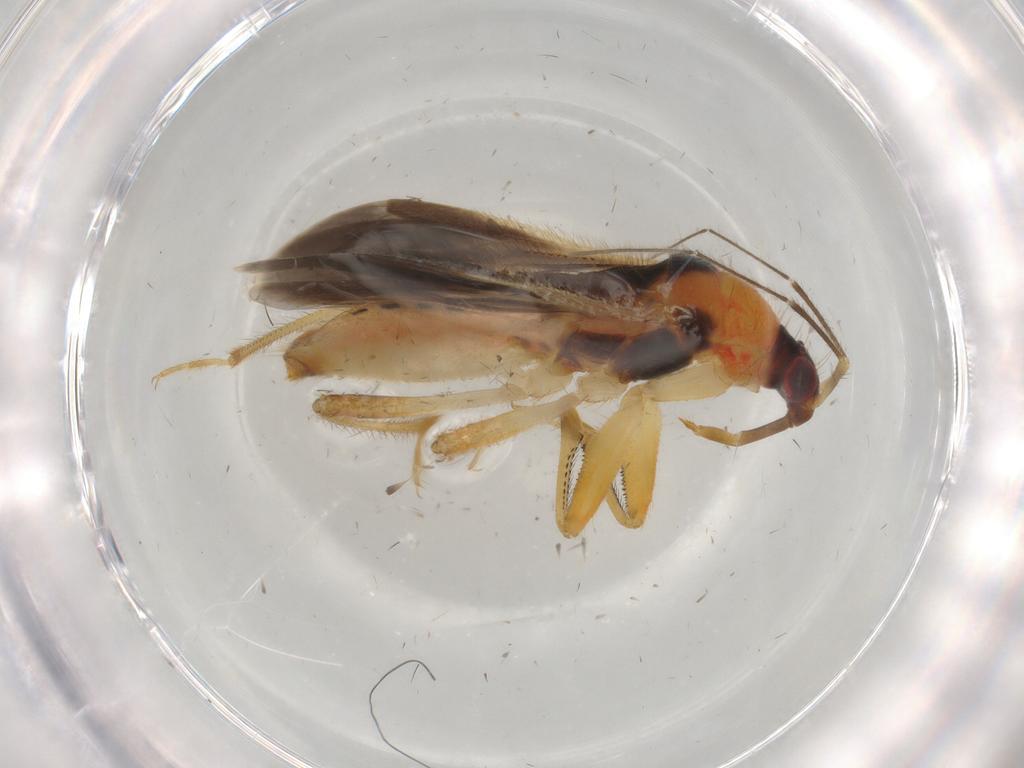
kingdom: Animalia
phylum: Arthropoda
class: Insecta
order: Hemiptera
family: Nabidae
